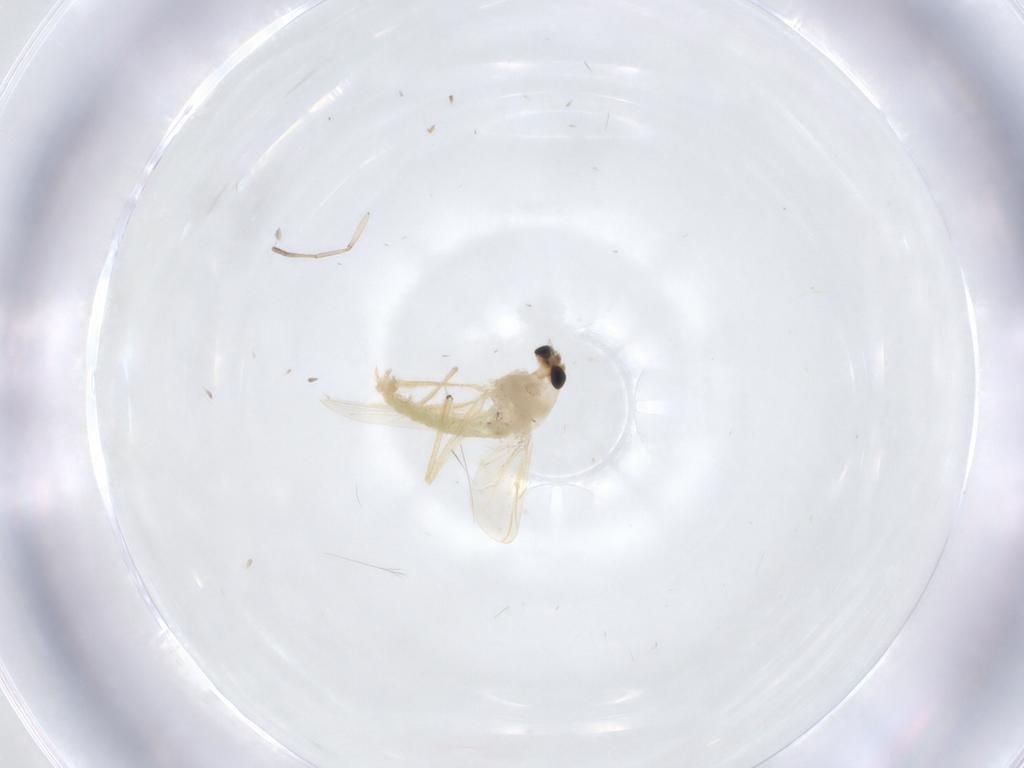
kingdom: Animalia
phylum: Arthropoda
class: Insecta
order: Diptera
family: Chironomidae
